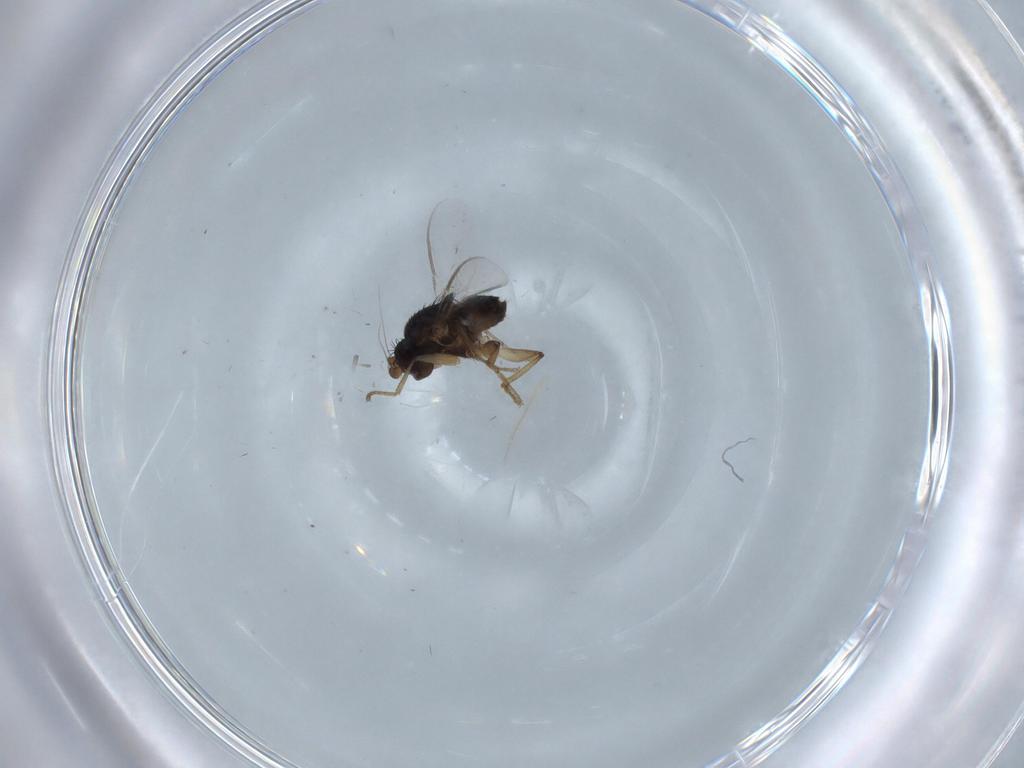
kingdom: Animalia
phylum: Arthropoda
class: Insecta
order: Diptera
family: Sphaeroceridae
